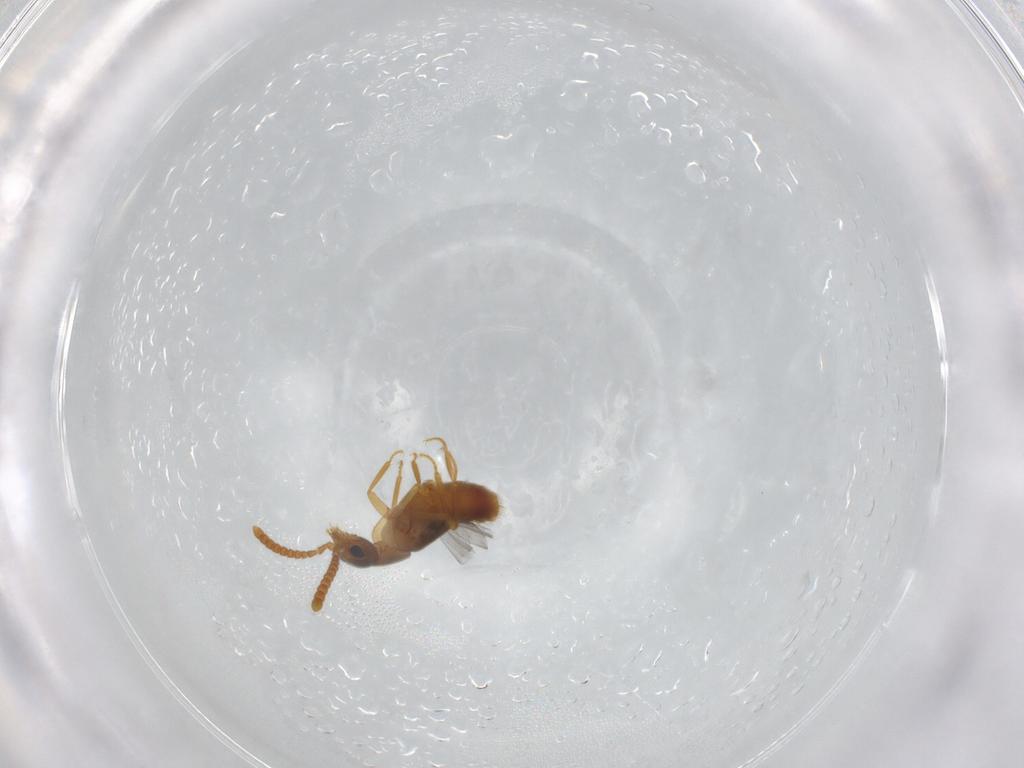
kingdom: Animalia
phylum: Arthropoda
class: Insecta
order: Coleoptera
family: Staphylinidae
